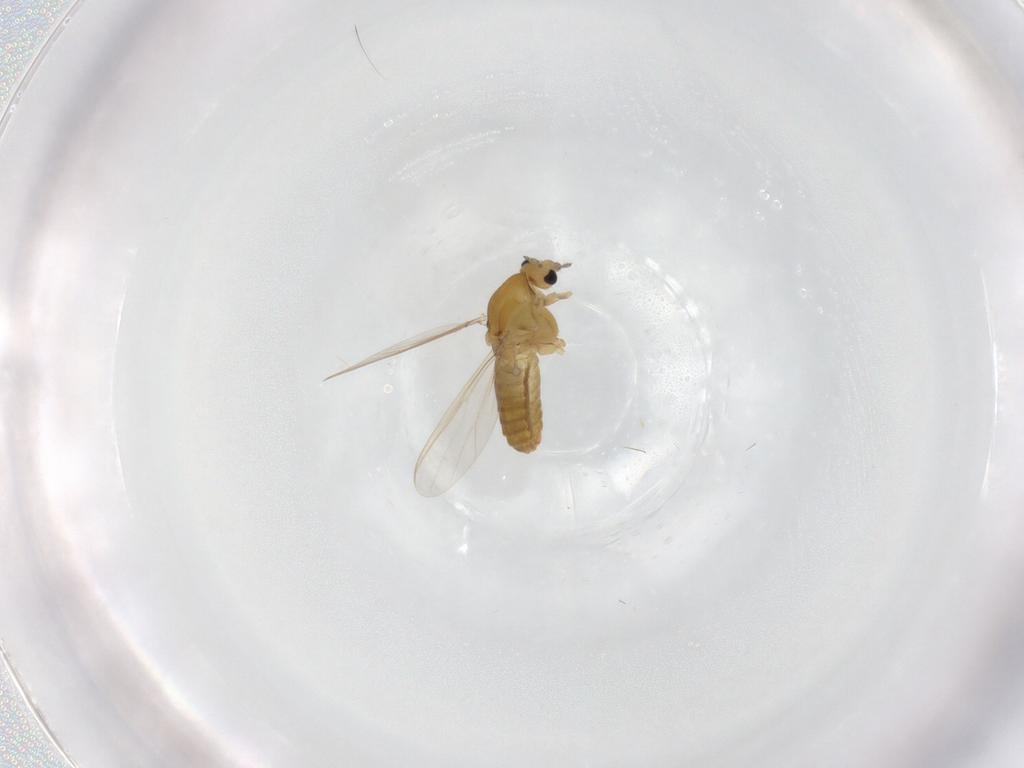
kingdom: Animalia
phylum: Arthropoda
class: Insecta
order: Diptera
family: Chironomidae
